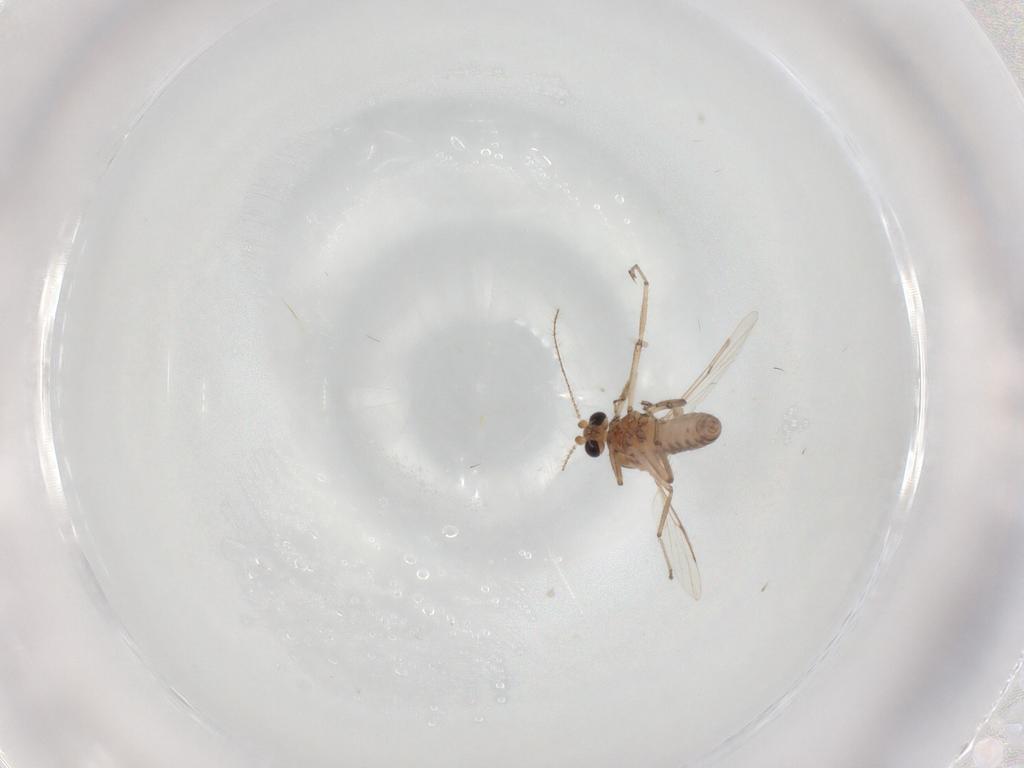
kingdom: Animalia
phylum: Arthropoda
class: Insecta
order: Diptera
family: Ceratopogonidae
